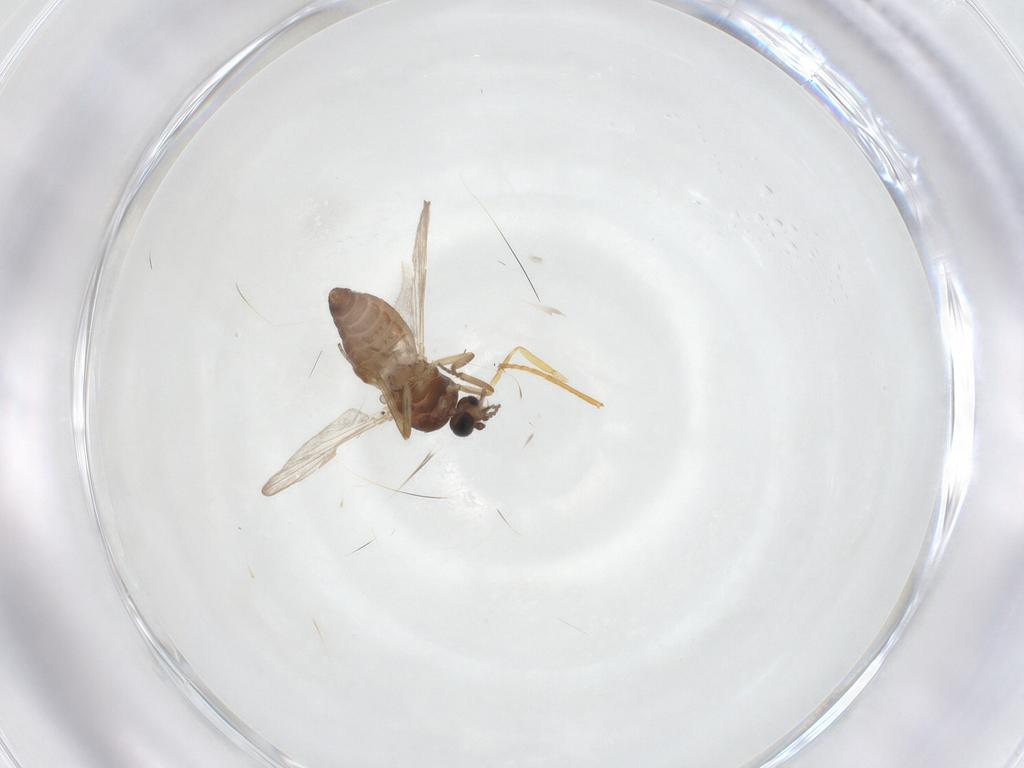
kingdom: Animalia
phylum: Arthropoda
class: Insecta
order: Diptera
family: Ceratopogonidae
